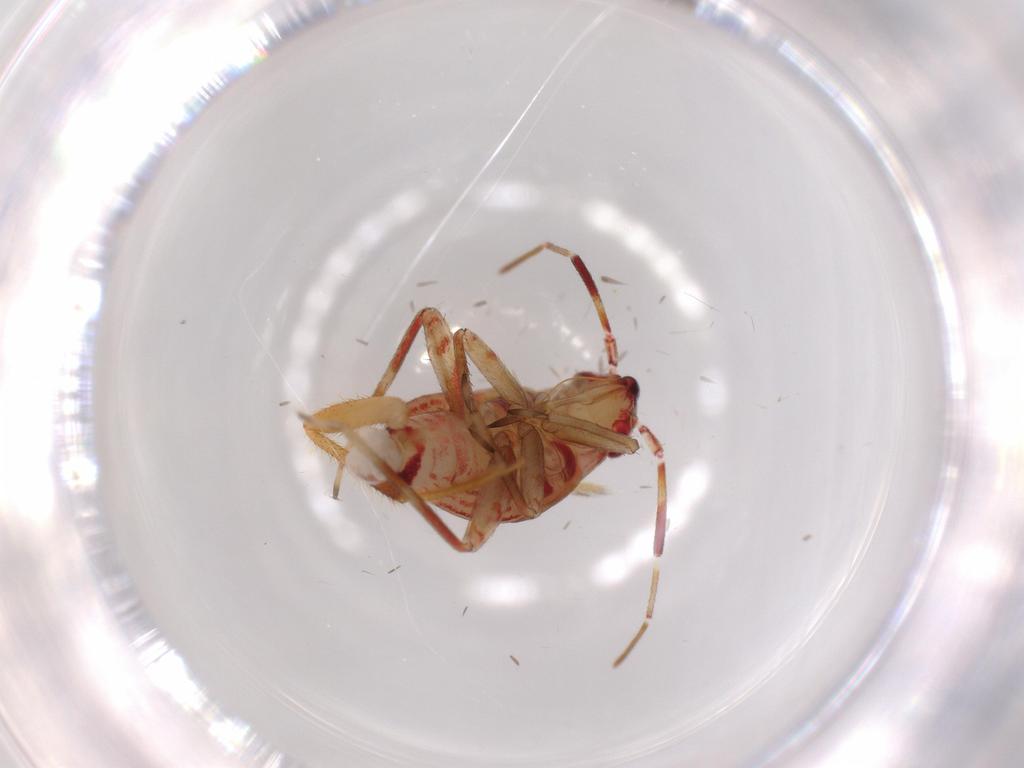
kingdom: Animalia
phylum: Arthropoda
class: Insecta
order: Hemiptera
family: Miridae
